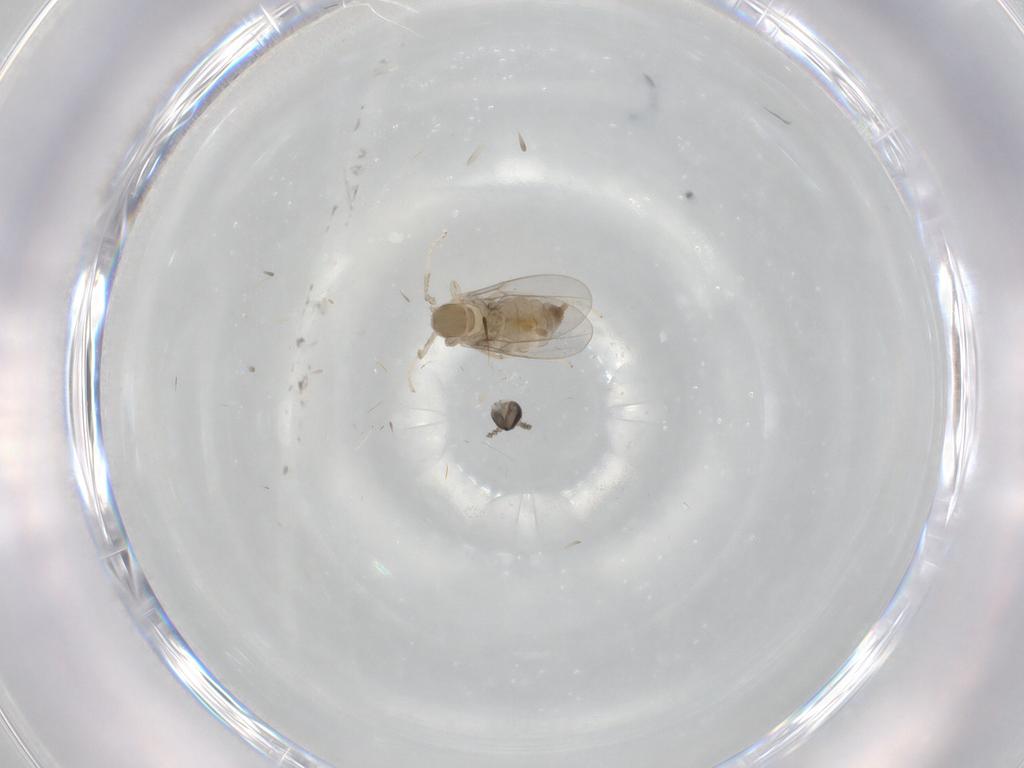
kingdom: Animalia
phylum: Arthropoda
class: Insecta
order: Diptera
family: Cecidomyiidae
